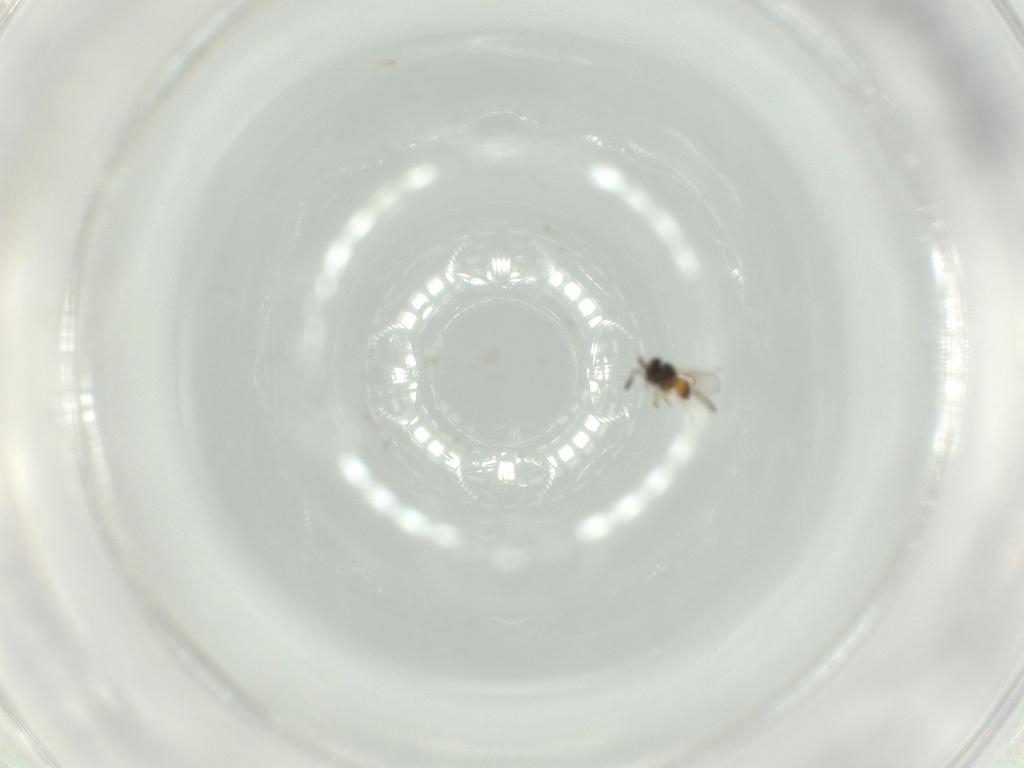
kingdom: Animalia
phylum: Arthropoda
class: Insecta
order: Hymenoptera
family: Scelionidae
